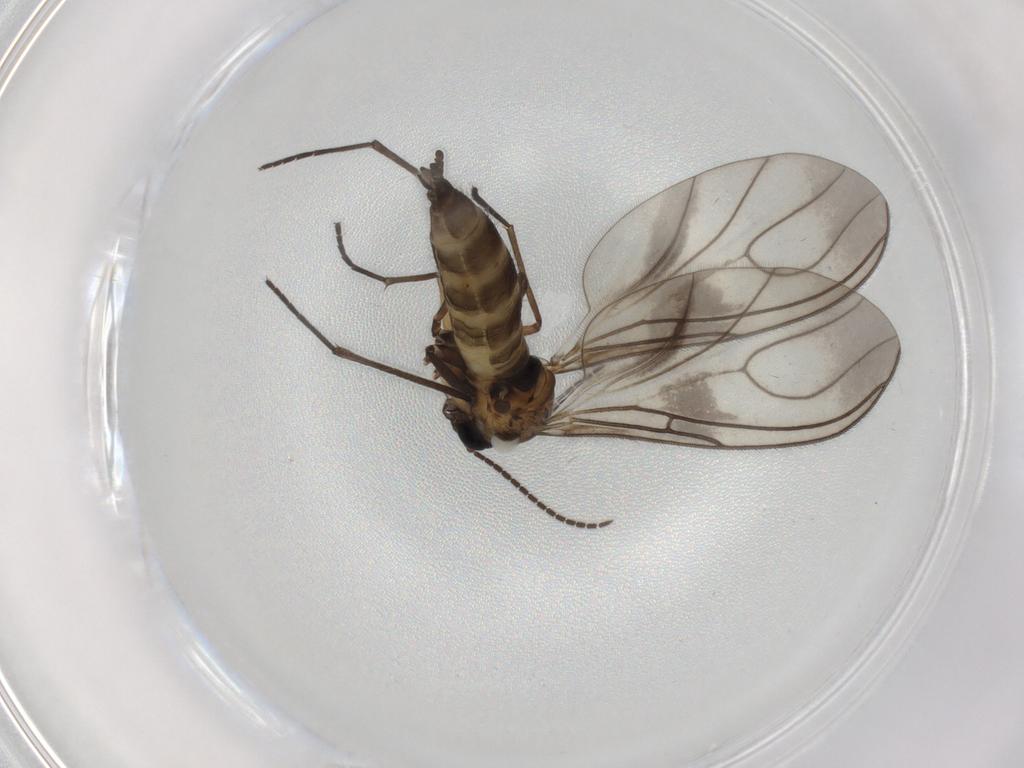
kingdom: Animalia
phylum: Arthropoda
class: Insecta
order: Diptera
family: Sciaridae
